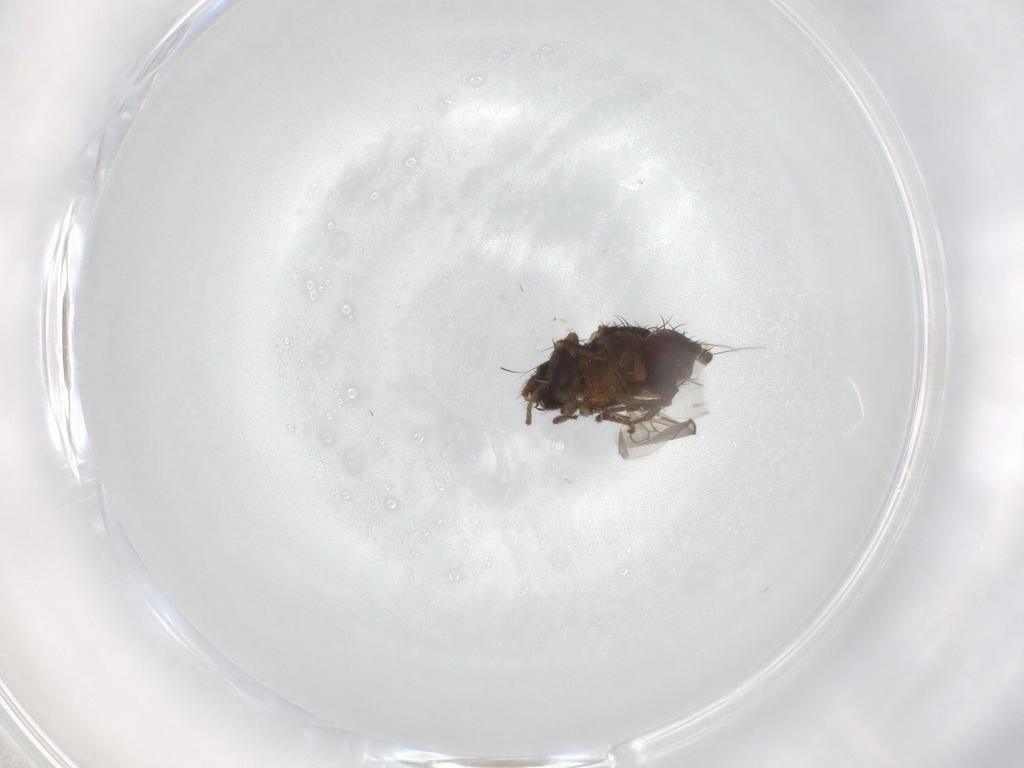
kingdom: Animalia
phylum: Arthropoda
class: Insecta
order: Diptera
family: Sphaeroceridae
